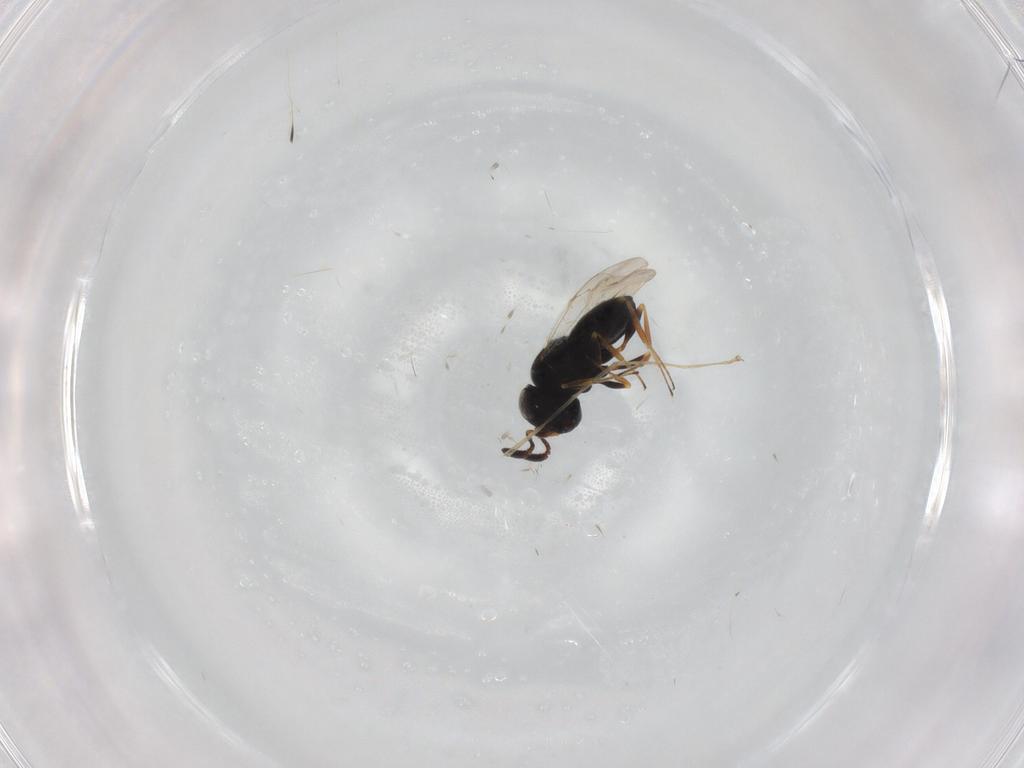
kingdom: Animalia
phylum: Arthropoda
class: Insecta
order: Coleoptera
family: Curculionidae
